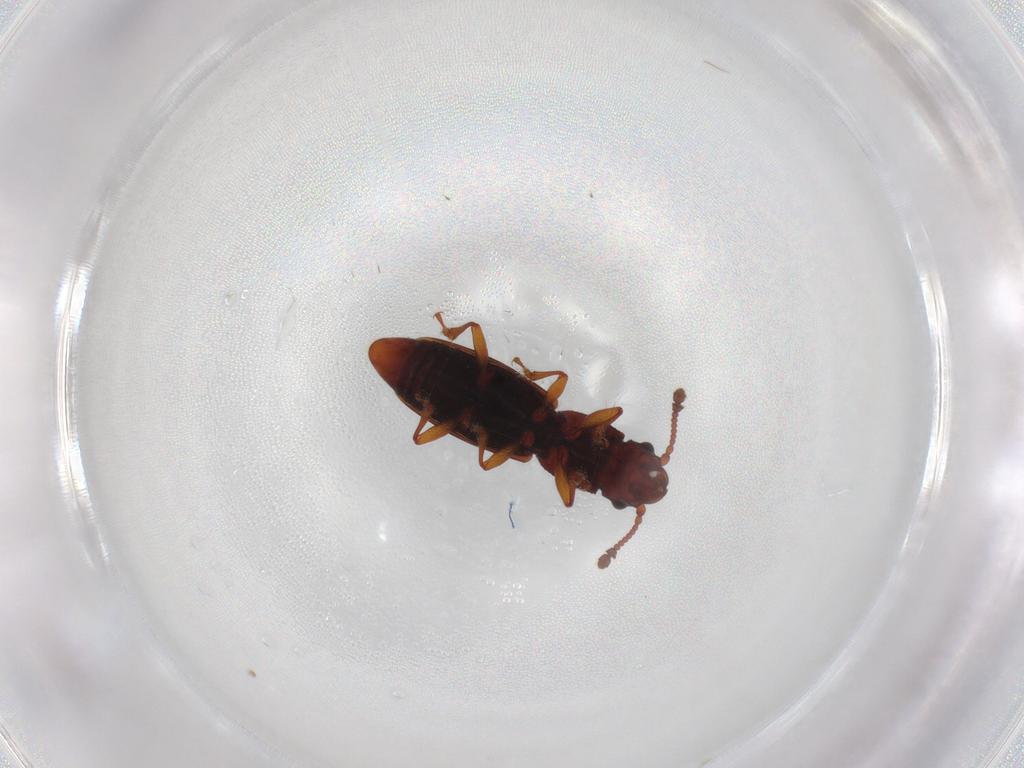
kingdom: Animalia
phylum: Arthropoda
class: Insecta
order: Coleoptera
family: Monotomidae
